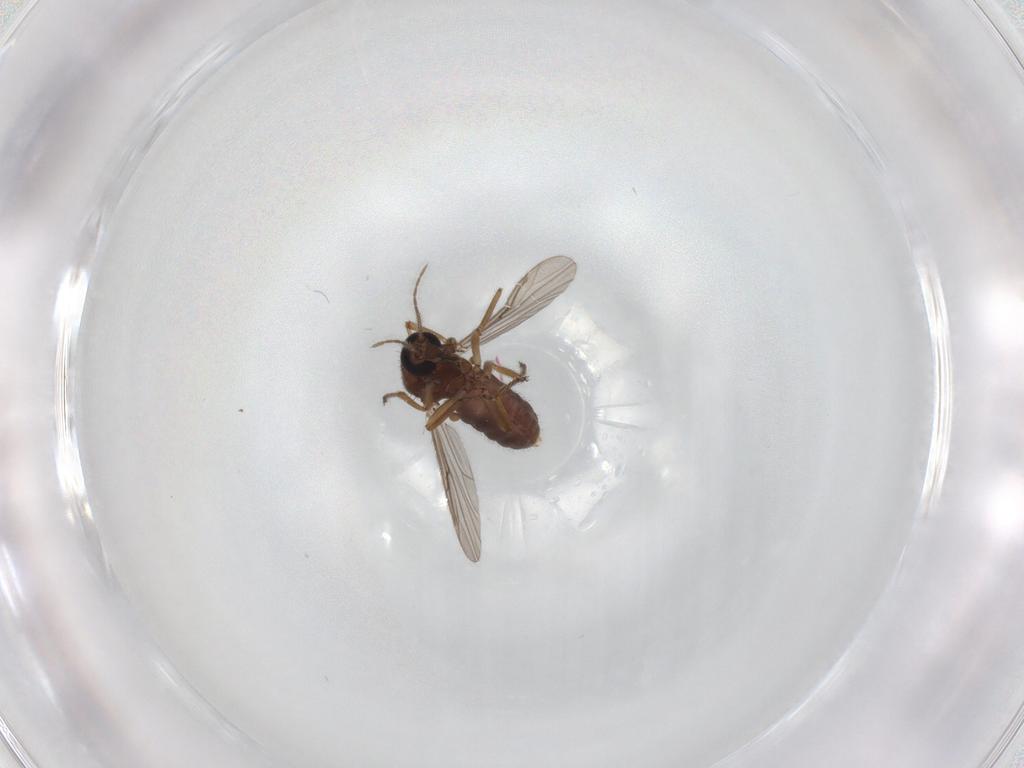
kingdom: Animalia
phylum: Arthropoda
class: Insecta
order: Diptera
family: Ceratopogonidae
